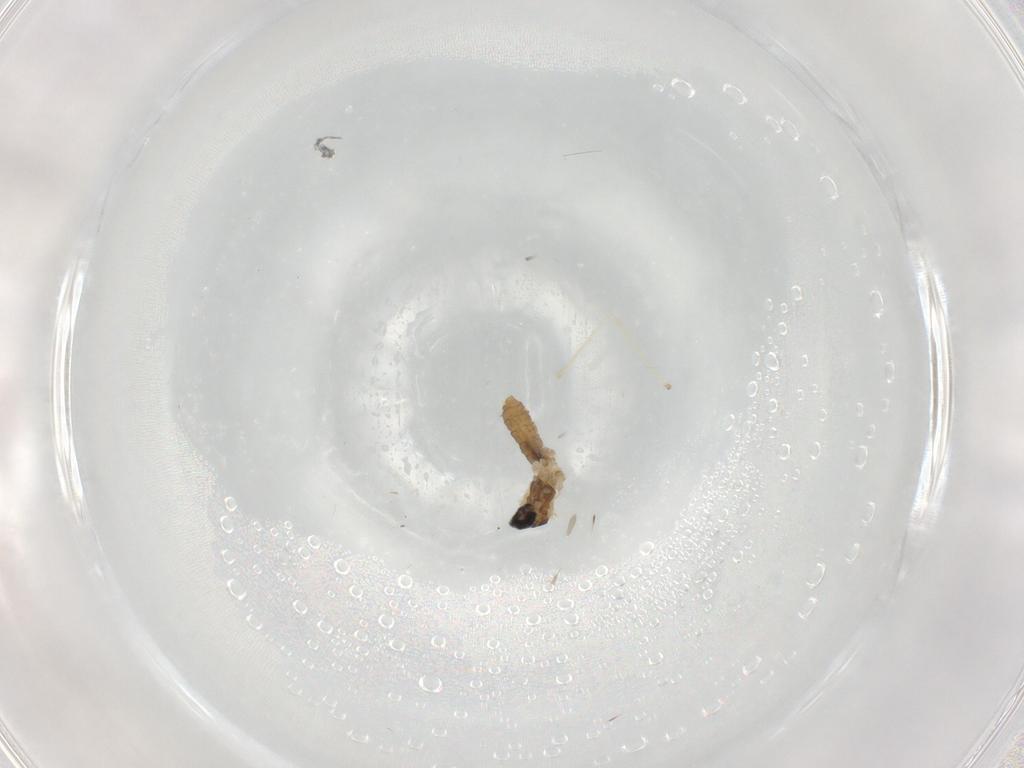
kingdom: Animalia
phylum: Arthropoda
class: Insecta
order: Diptera
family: Cecidomyiidae
